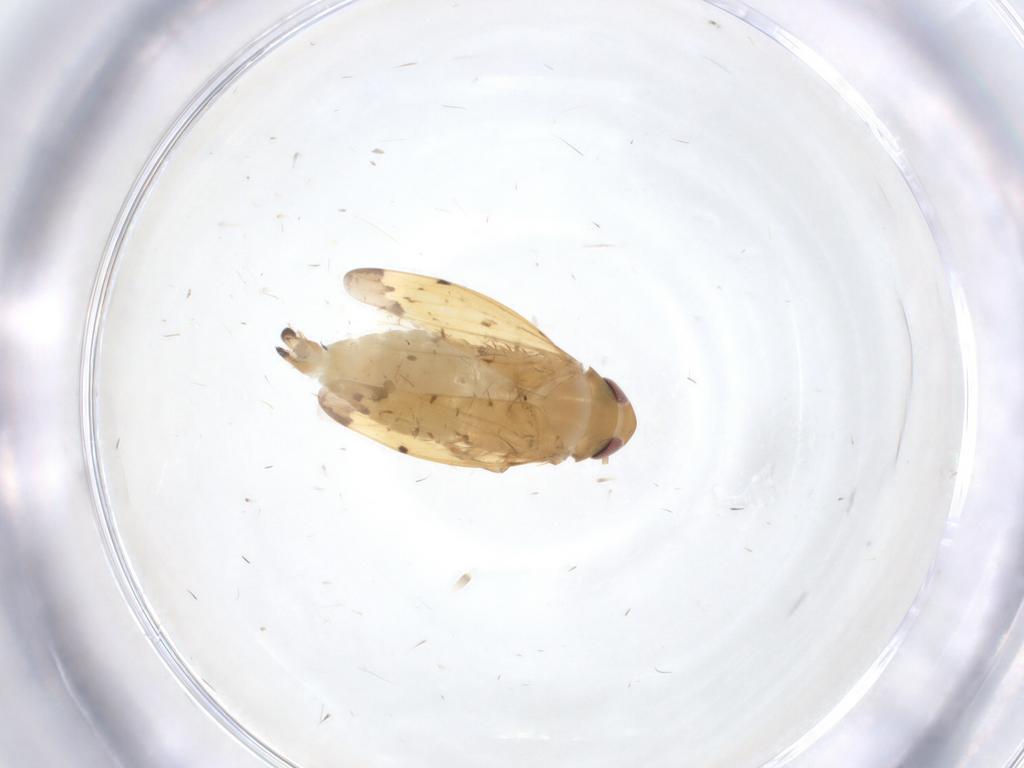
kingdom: Animalia
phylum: Arthropoda
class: Insecta
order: Hemiptera
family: Cicadellidae
